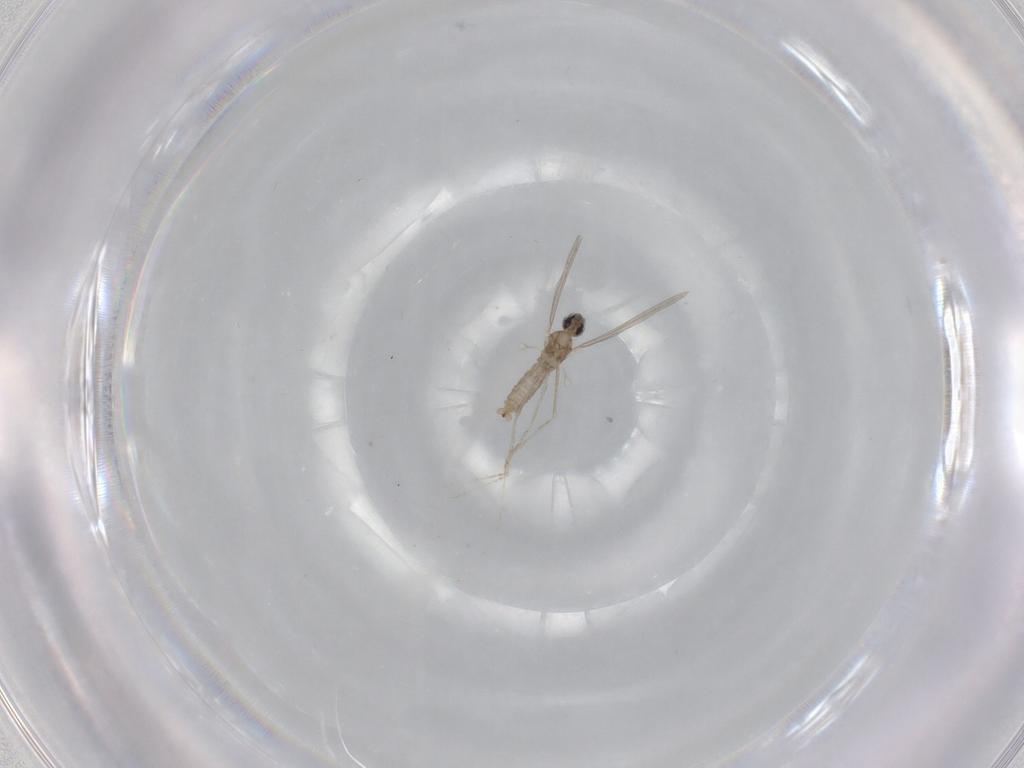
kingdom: Animalia
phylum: Arthropoda
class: Insecta
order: Diptera
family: Cecidomyiidae
